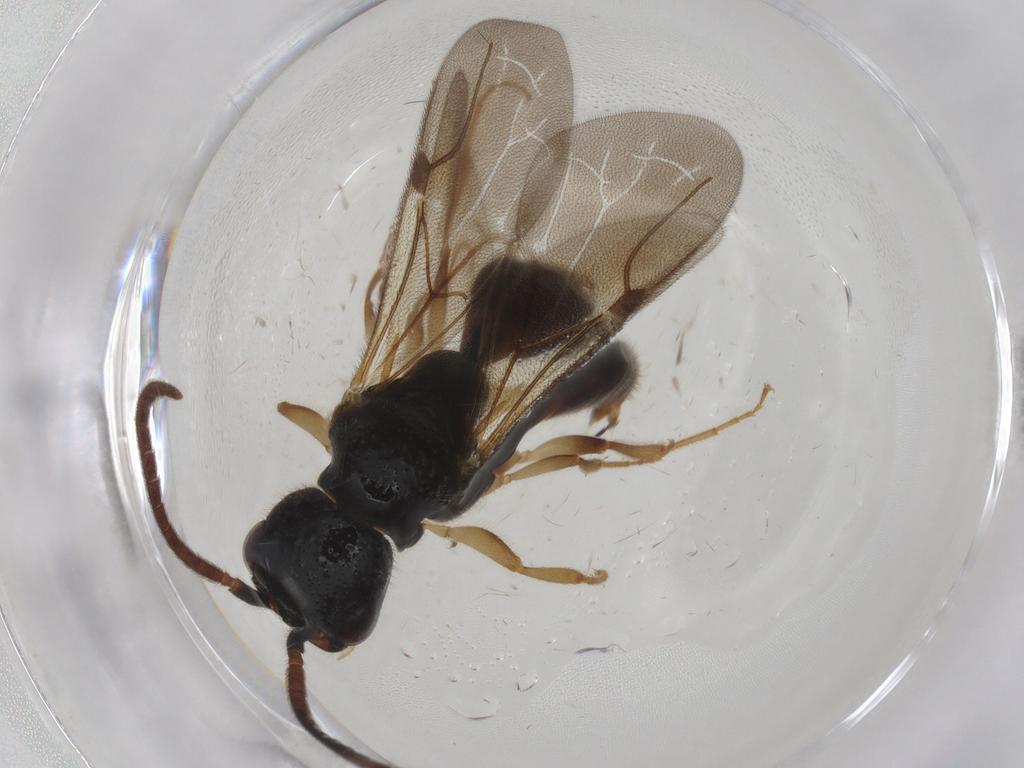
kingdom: Animalia
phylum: Arthropoda
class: Insecta
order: Hymenoptera
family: Bethylidae
